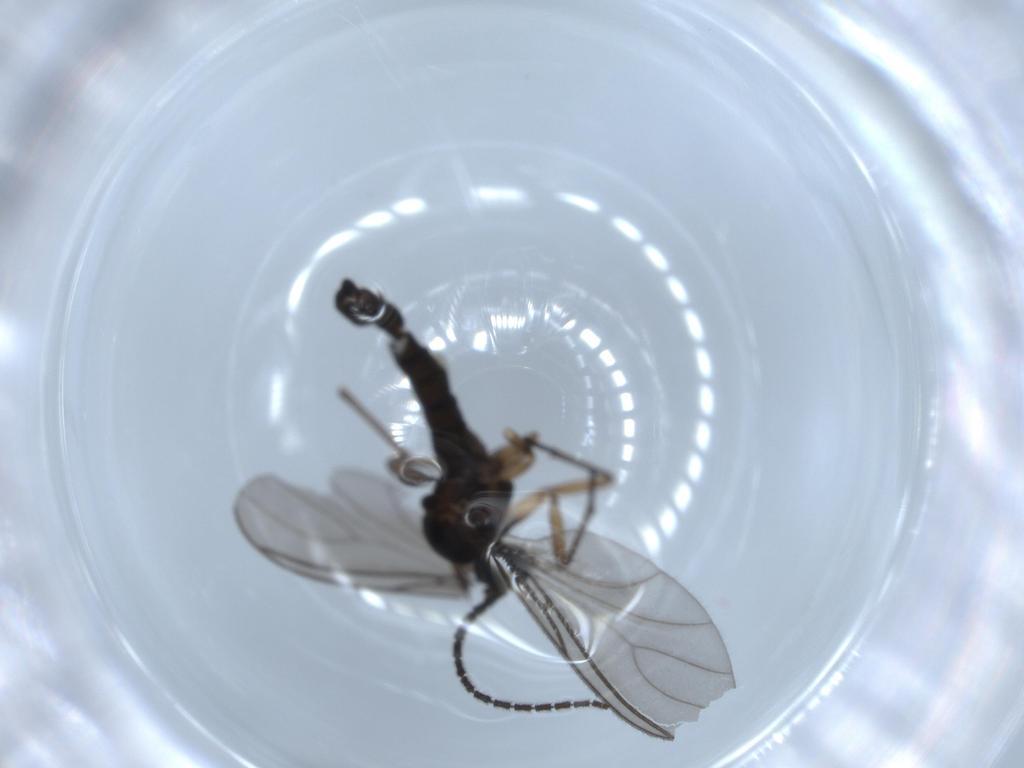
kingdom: Animalia
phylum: Arthropoda
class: Insecta
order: Diptera
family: Sciaridae
